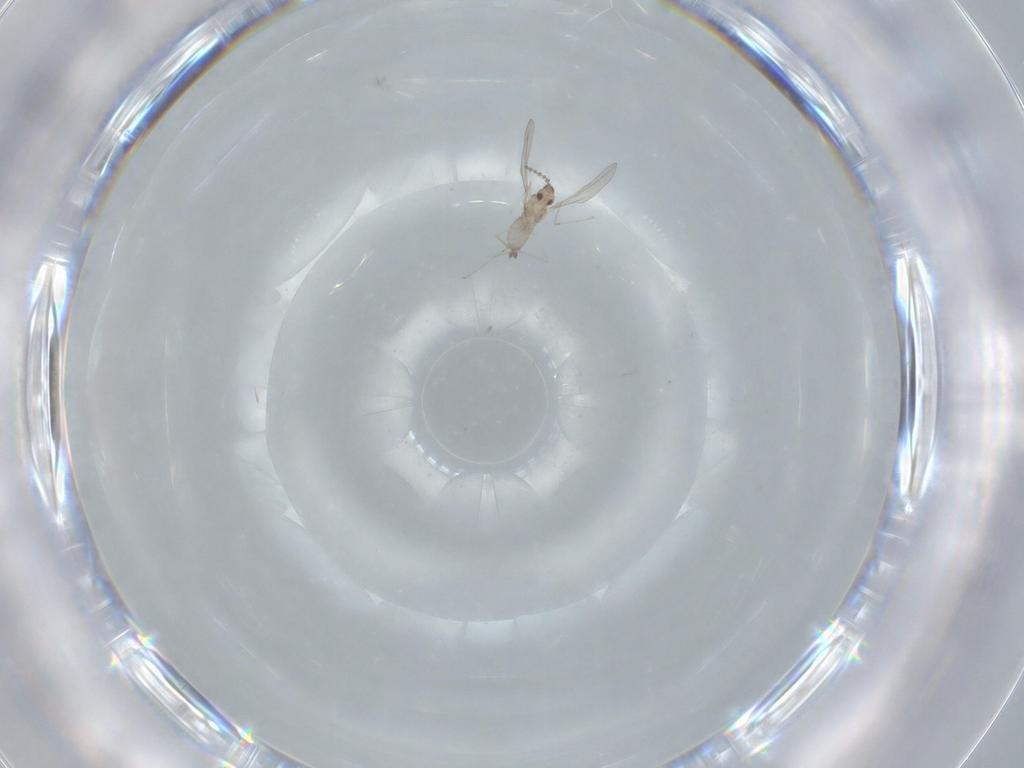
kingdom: Animalia
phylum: Arthropoda
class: Insecta
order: Diptera
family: Cecidomyiidae
